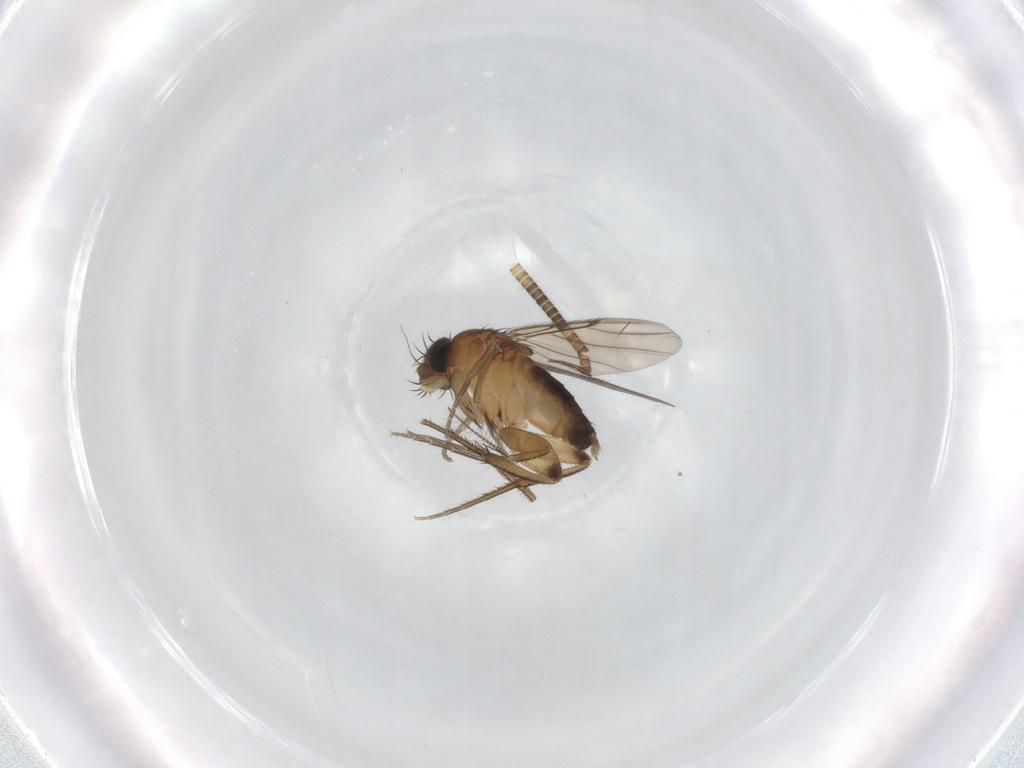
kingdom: Animalia
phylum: Arthropoda
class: Insecta
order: Diptera
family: Phoridae
